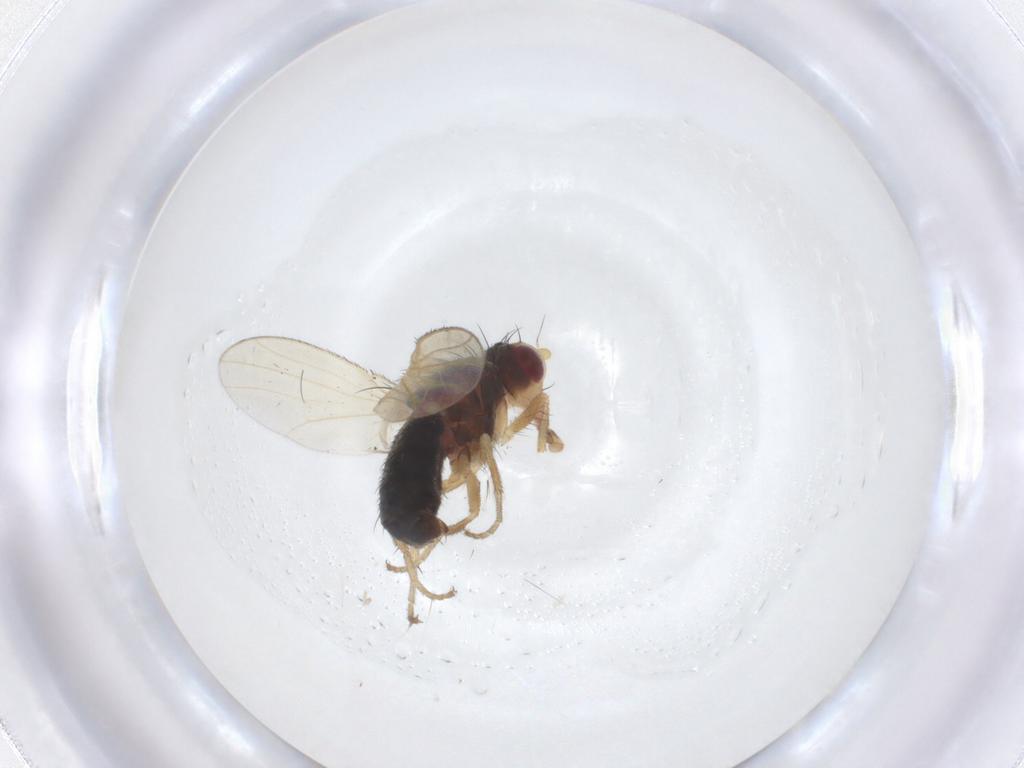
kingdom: Animalia
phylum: Arthropoda
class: Insecta
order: Diptera
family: Heleomyzidae
